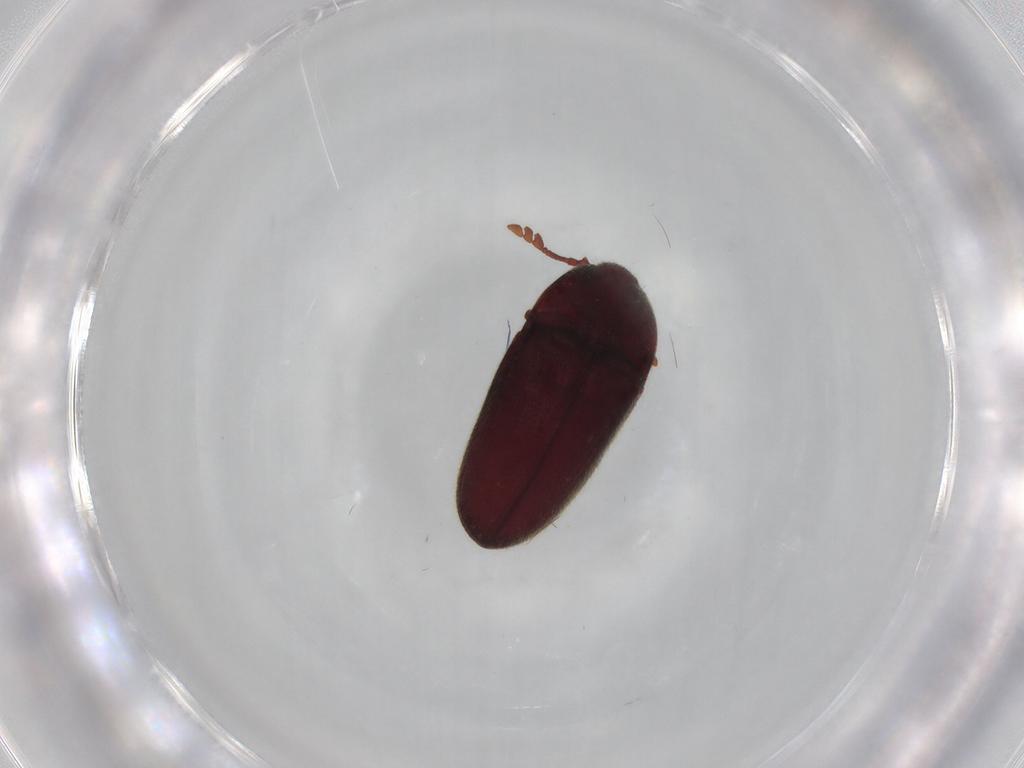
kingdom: Animalia
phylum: Arthropoda
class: Insecta
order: Coleoptera
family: Throscidae
